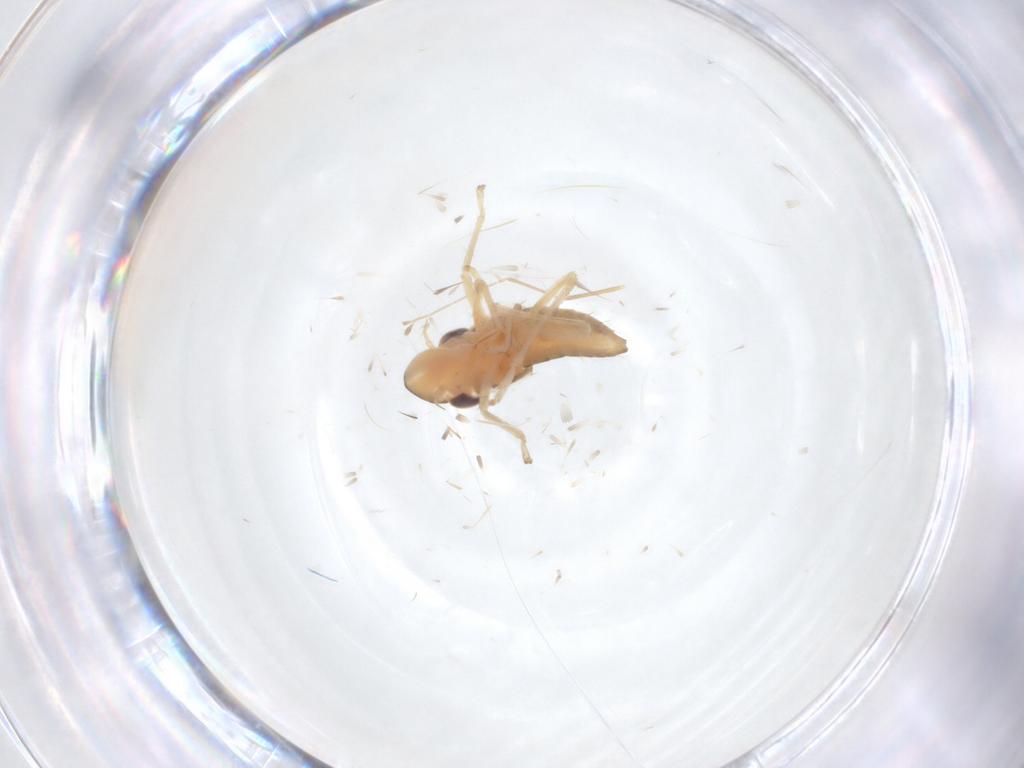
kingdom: Animalia
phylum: Arthropoda
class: Insecta
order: Hemiptera
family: Cicadellidae
